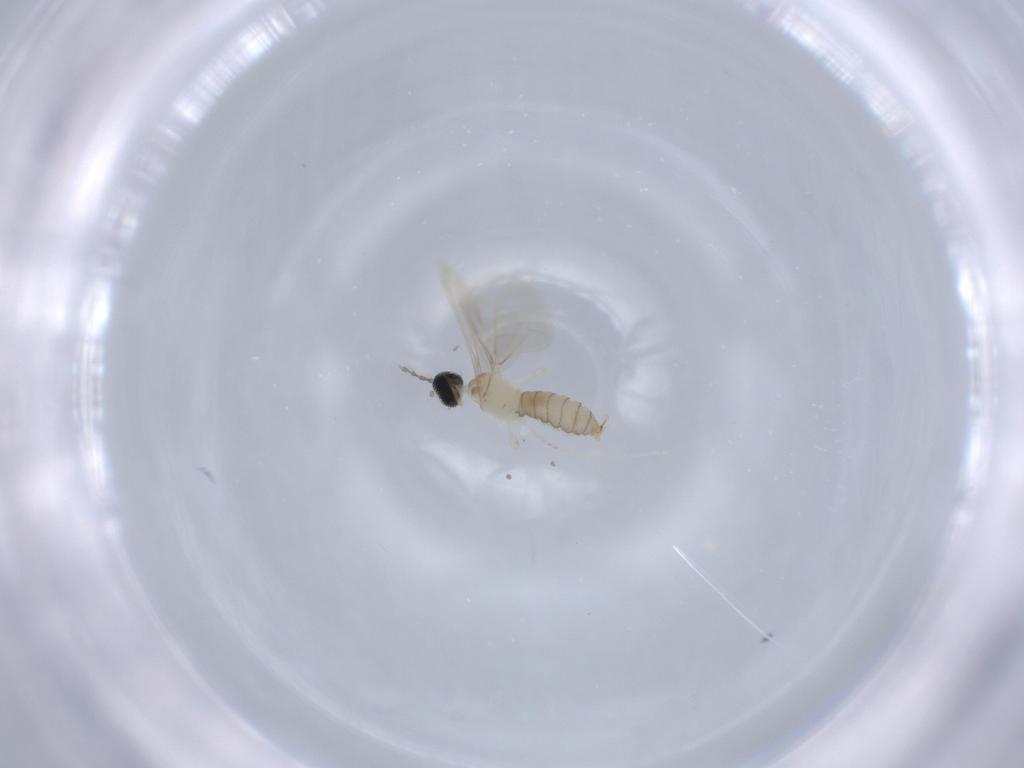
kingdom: Animalia
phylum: Arthropoda
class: Insecta
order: Diptera
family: Cecidomyiidae
